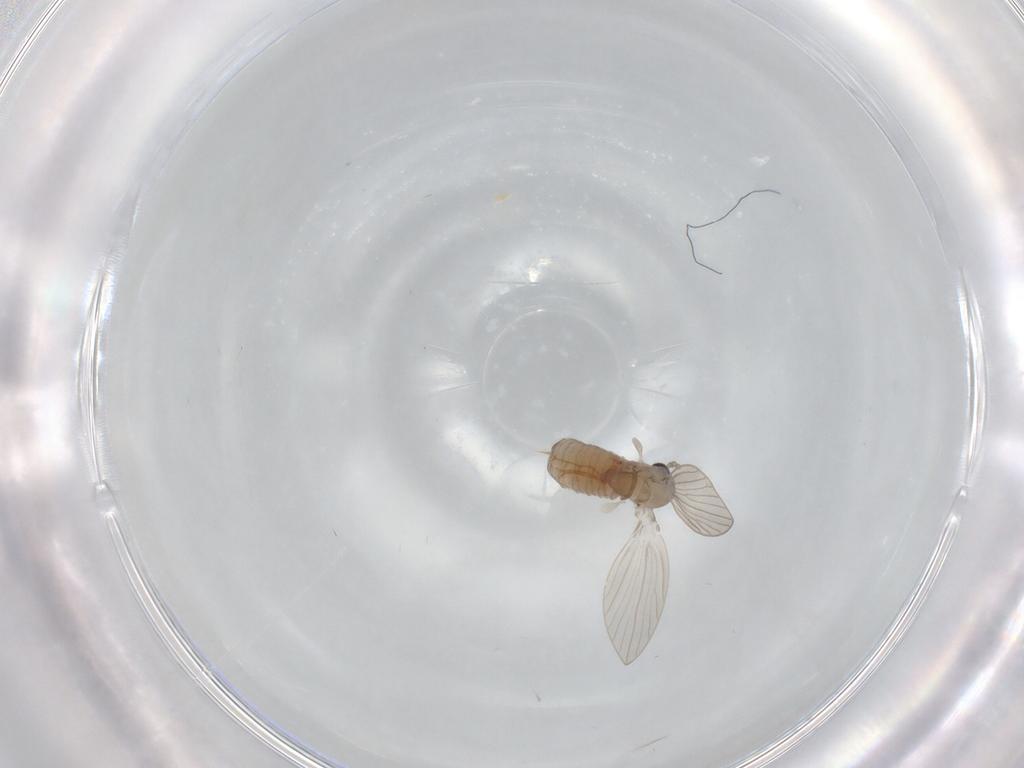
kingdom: Animalia
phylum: Arthropoda
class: Insecta
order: Diptera
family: Psychodidae
